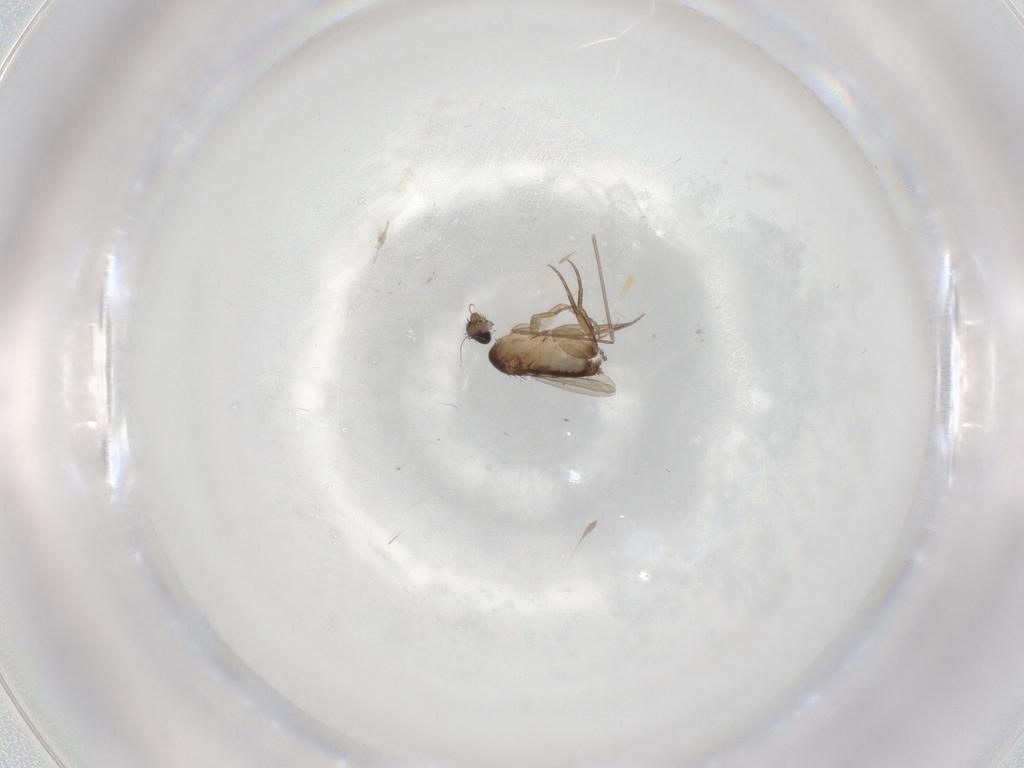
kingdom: Animalia
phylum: Arthropoda
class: Insecta
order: Diptera
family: Phoridae
